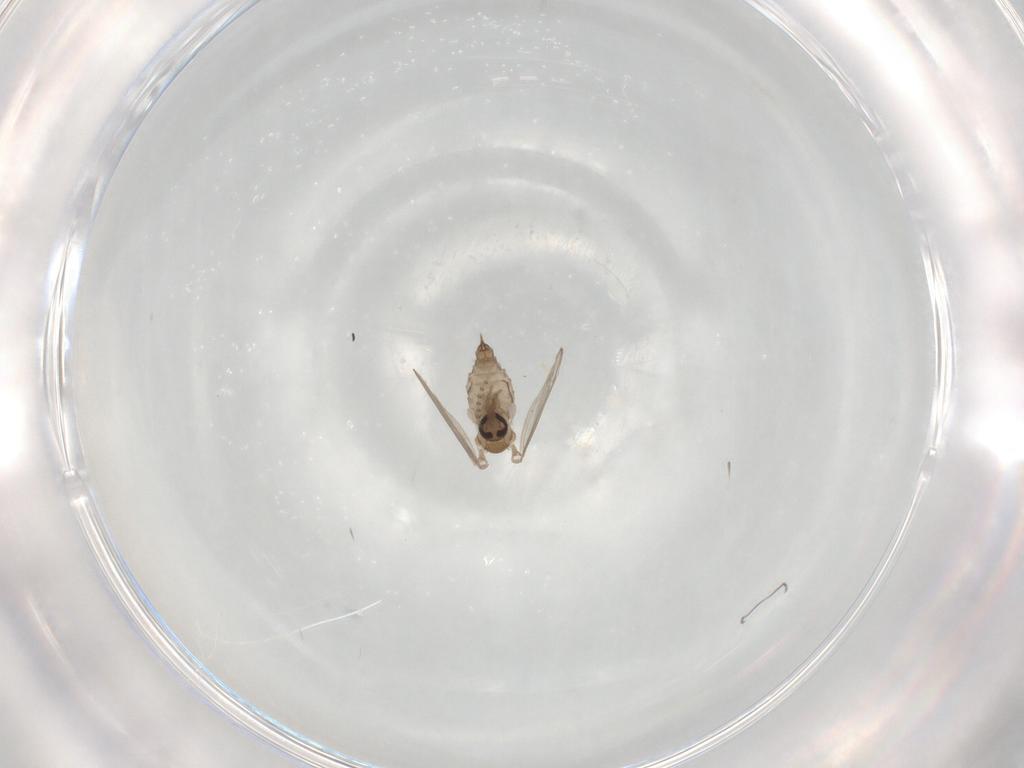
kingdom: Animalia
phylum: Arthropoda
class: Insecta
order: Diptera
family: Psychodidae
